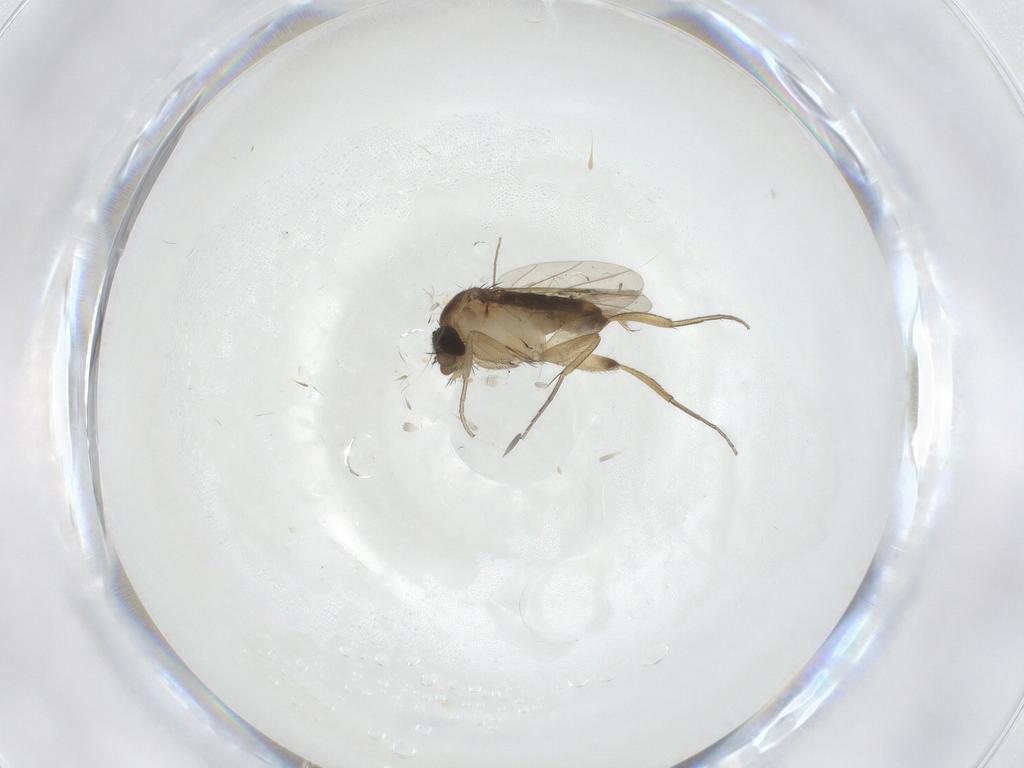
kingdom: Animalia
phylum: Arthropoda
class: Insecta
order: Diptera
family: Phoridae
